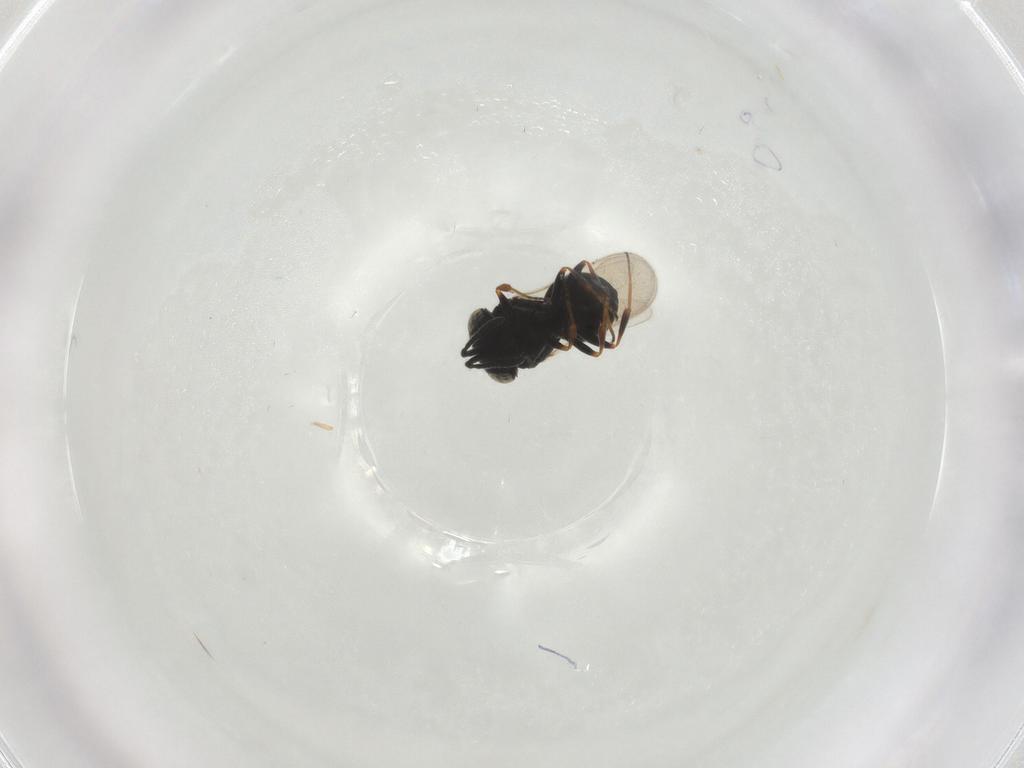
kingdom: Animalia
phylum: Arthropoda
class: Insecta
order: Hymenoptera
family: Scelionidae
